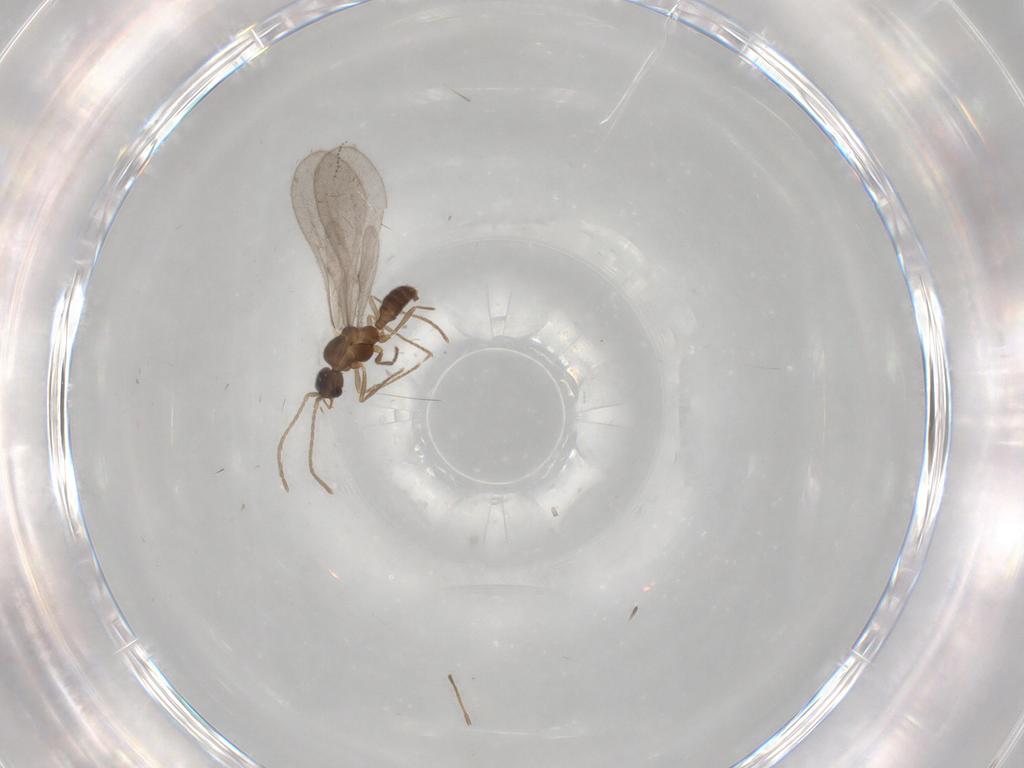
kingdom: Animalia
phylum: Arthropoda
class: Insecta
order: Hymenoptera
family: Formicidae
